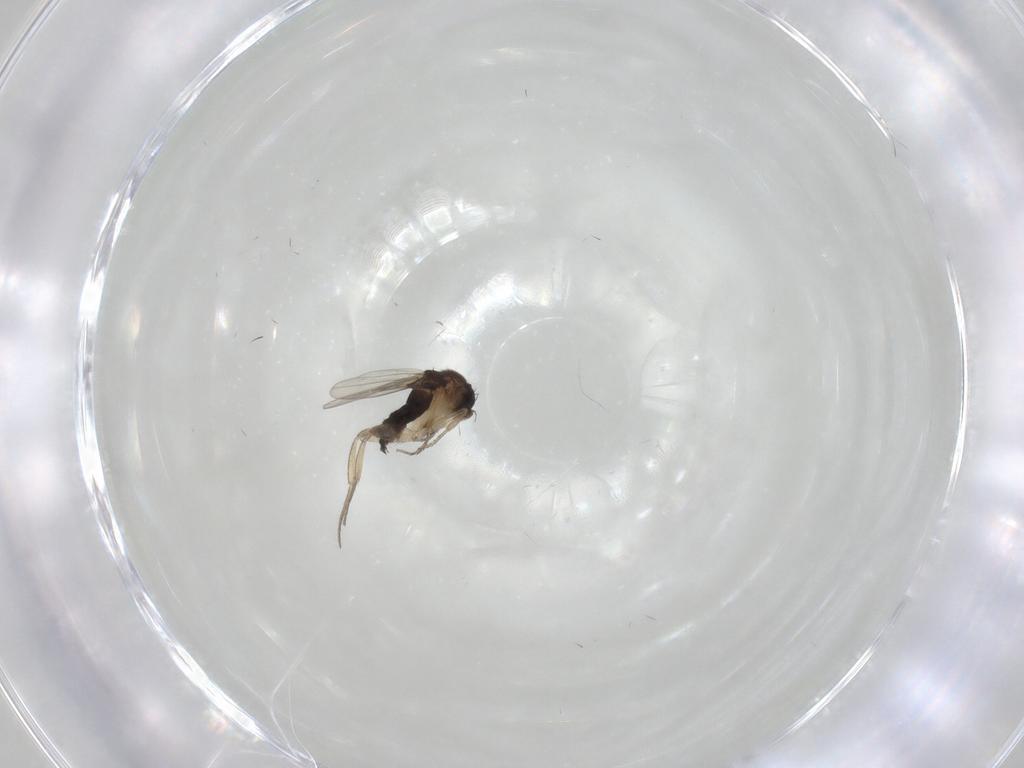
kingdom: Animalia
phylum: Arthropoda
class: Insecta
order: Diptera
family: Phoridae
